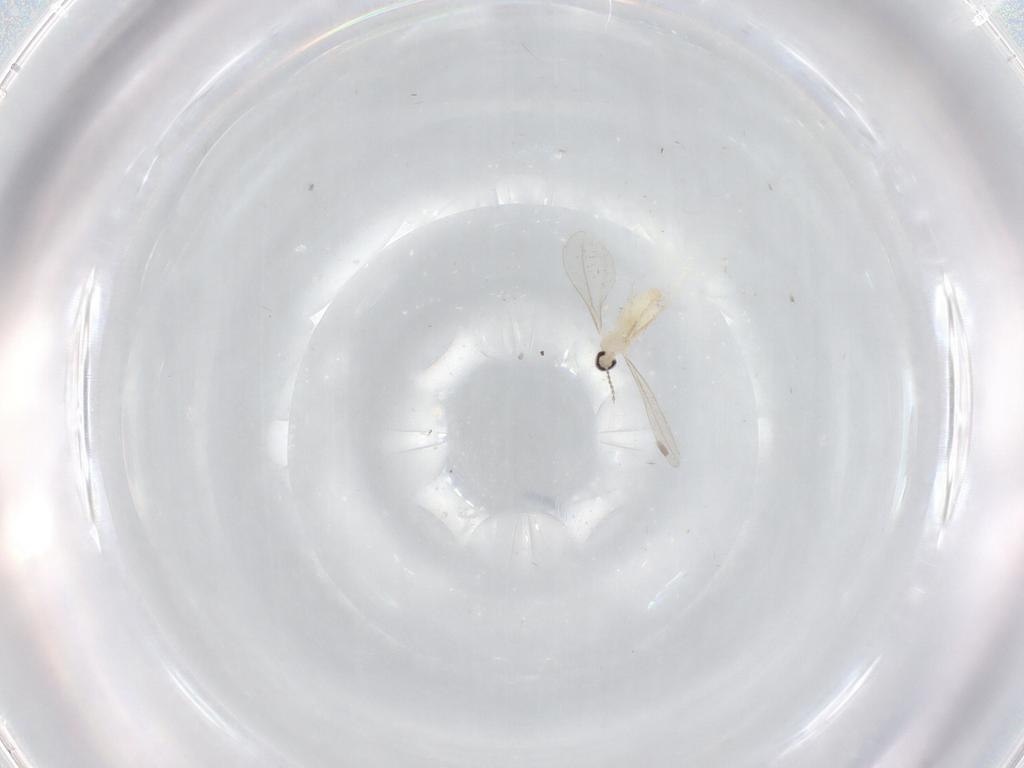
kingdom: Animalia
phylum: Arthropoda
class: Insecta
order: Diptera
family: Cecidomyiidae
